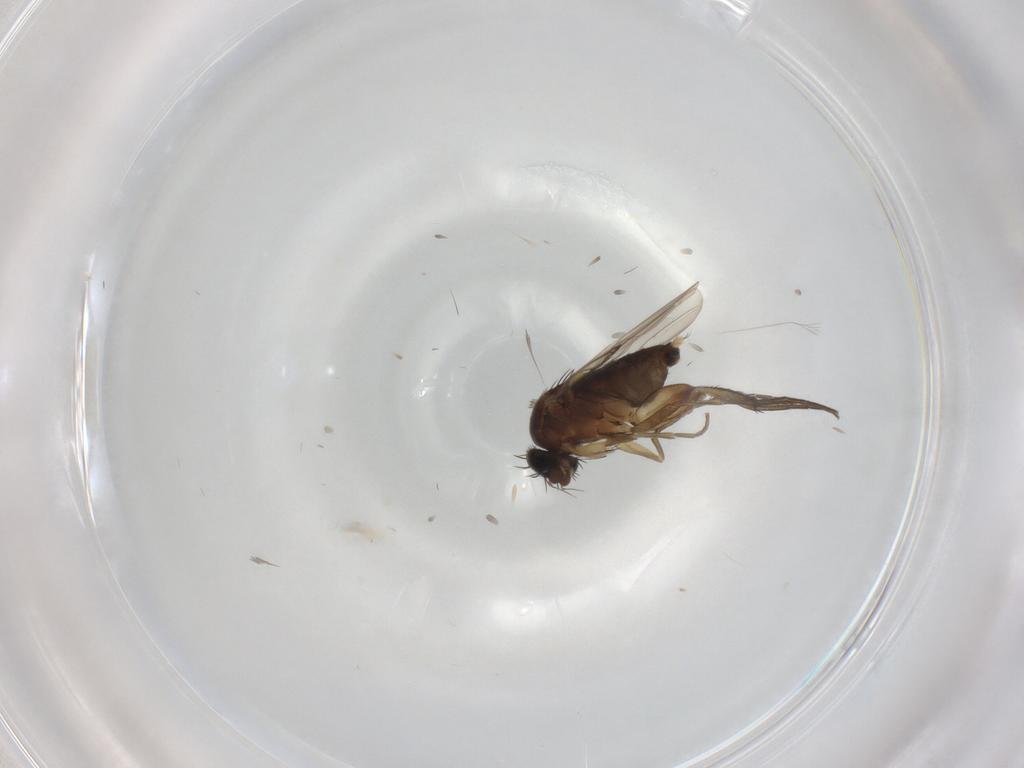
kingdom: Animalia
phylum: Arthropoda
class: Insecta
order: Diptera
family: Phoridae
